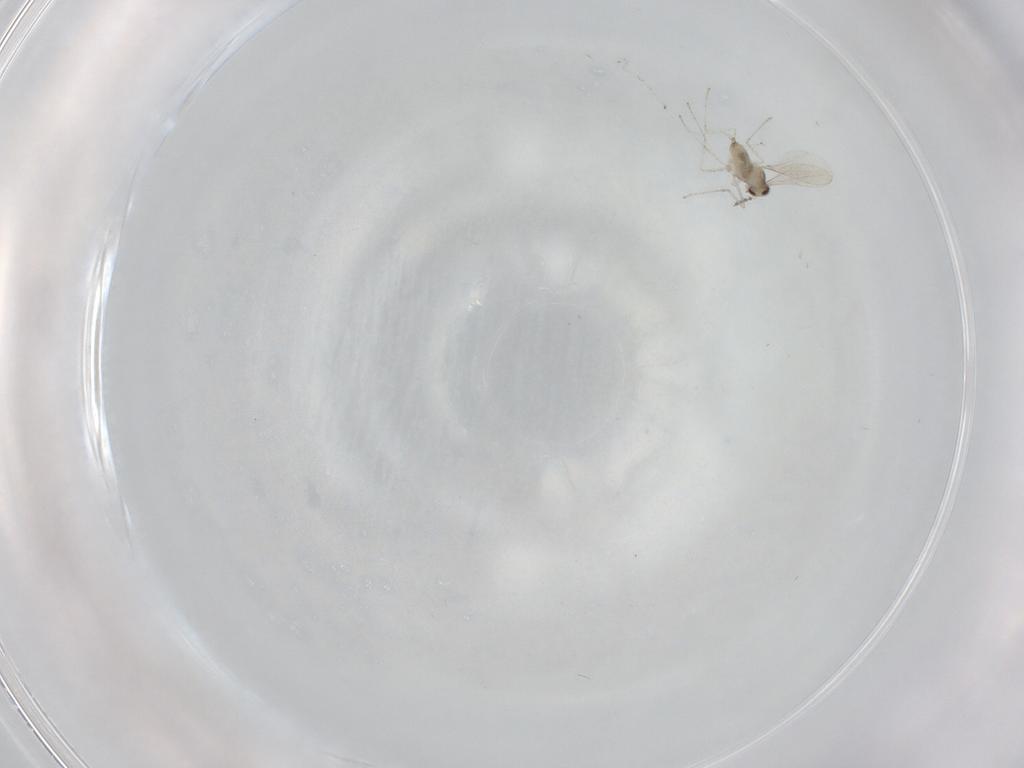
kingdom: Animalia
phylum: Arthropoda
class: Insecta
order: Diptera
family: Cecidomyiidae
